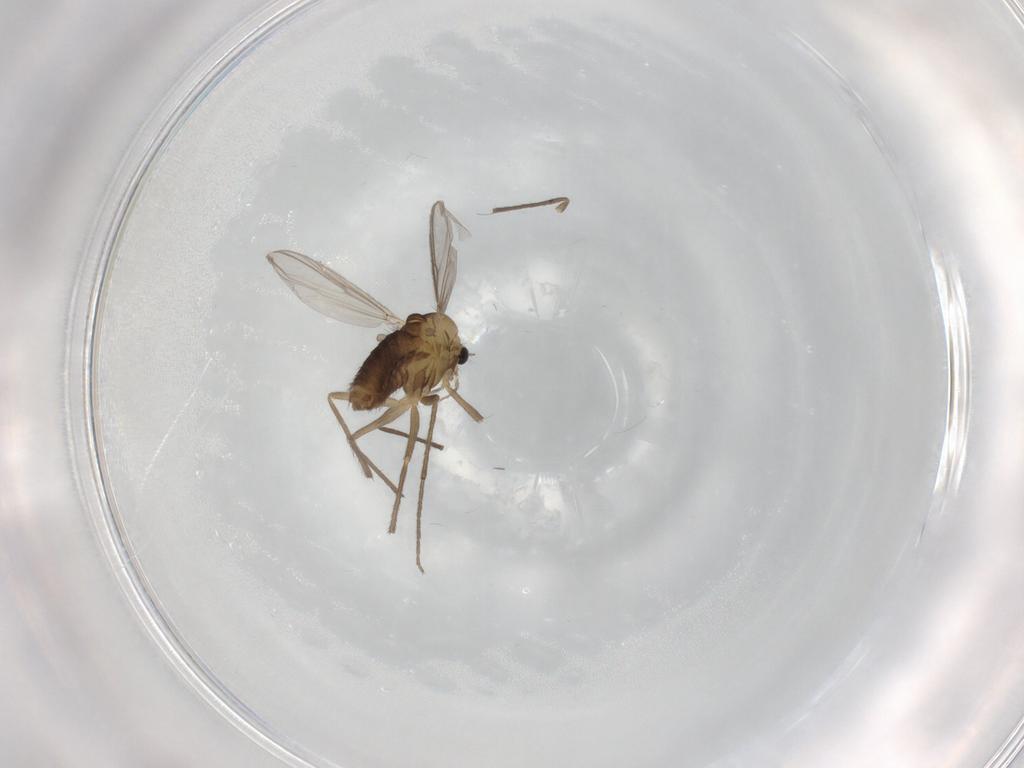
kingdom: Animalia
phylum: Arthropoda
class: Insecta
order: Diptera
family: Chironomidae
